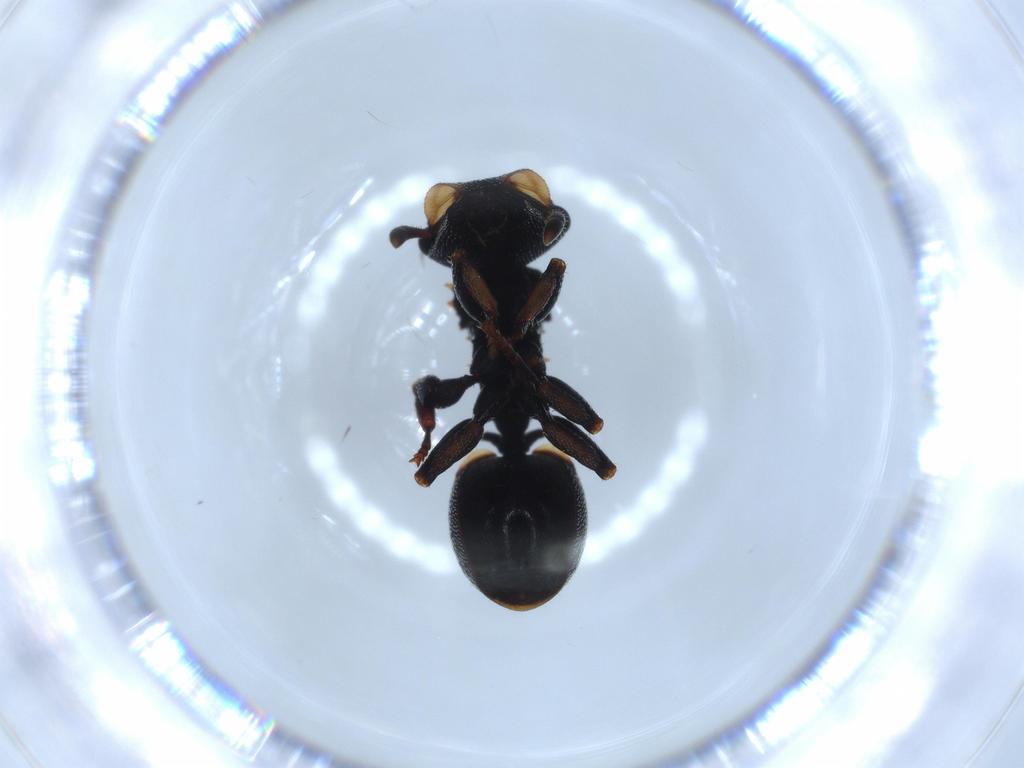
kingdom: Animalia
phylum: Arthropoda
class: Insecta
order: Hymenoptera
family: Formicidae
